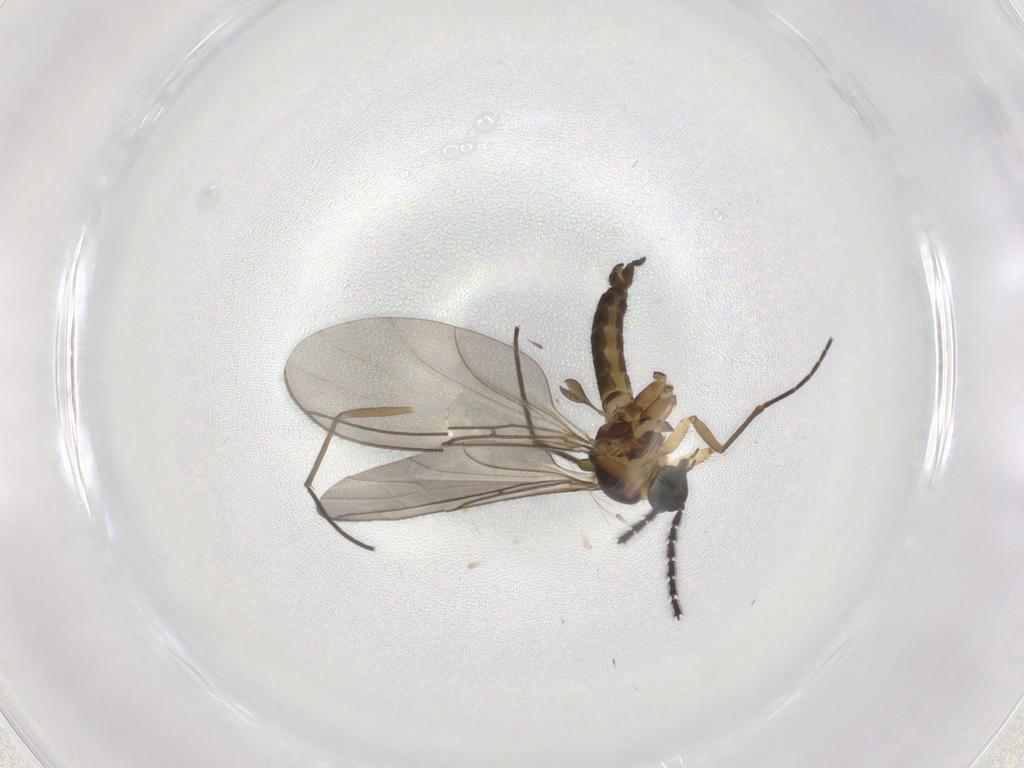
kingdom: Animalia
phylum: Arthropoda
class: Insecta
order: Diptera
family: Sciaridae
